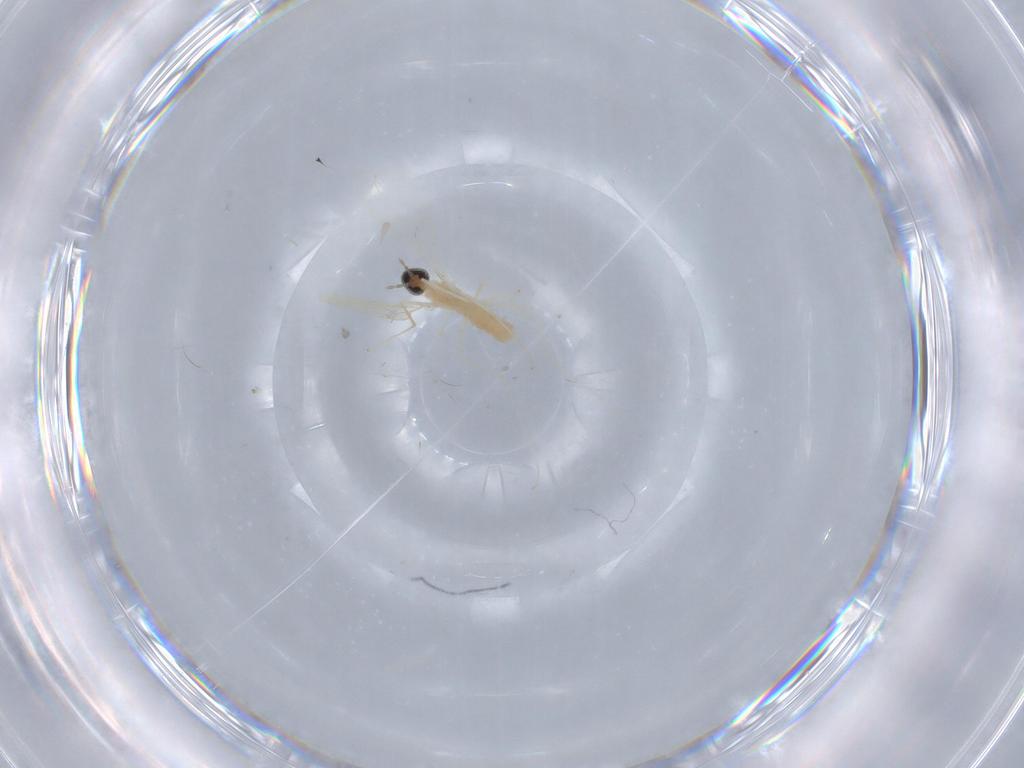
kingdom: Animalia
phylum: Arthropoda
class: Insecta
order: Diptera
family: Cecidomyiidae
